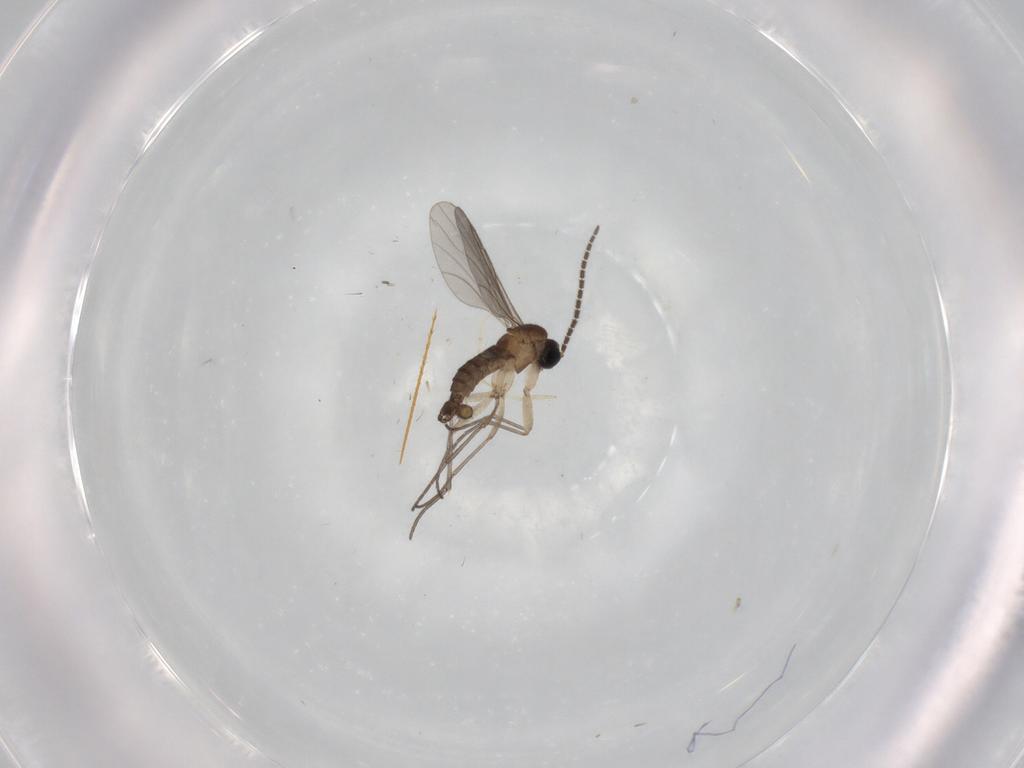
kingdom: Animalia
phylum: Arthropoda
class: Insecta
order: Diptera
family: Sciaridae
